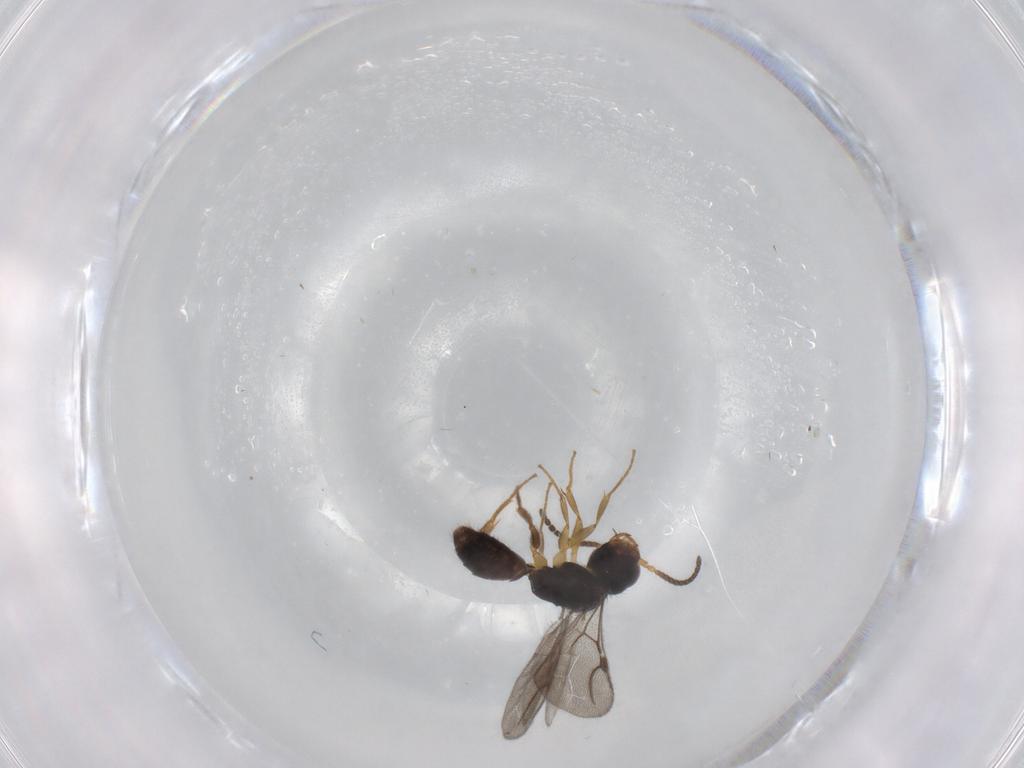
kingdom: Animalia
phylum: Arthropoda
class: Insecta
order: Hymenoptera
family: Bethylidae
